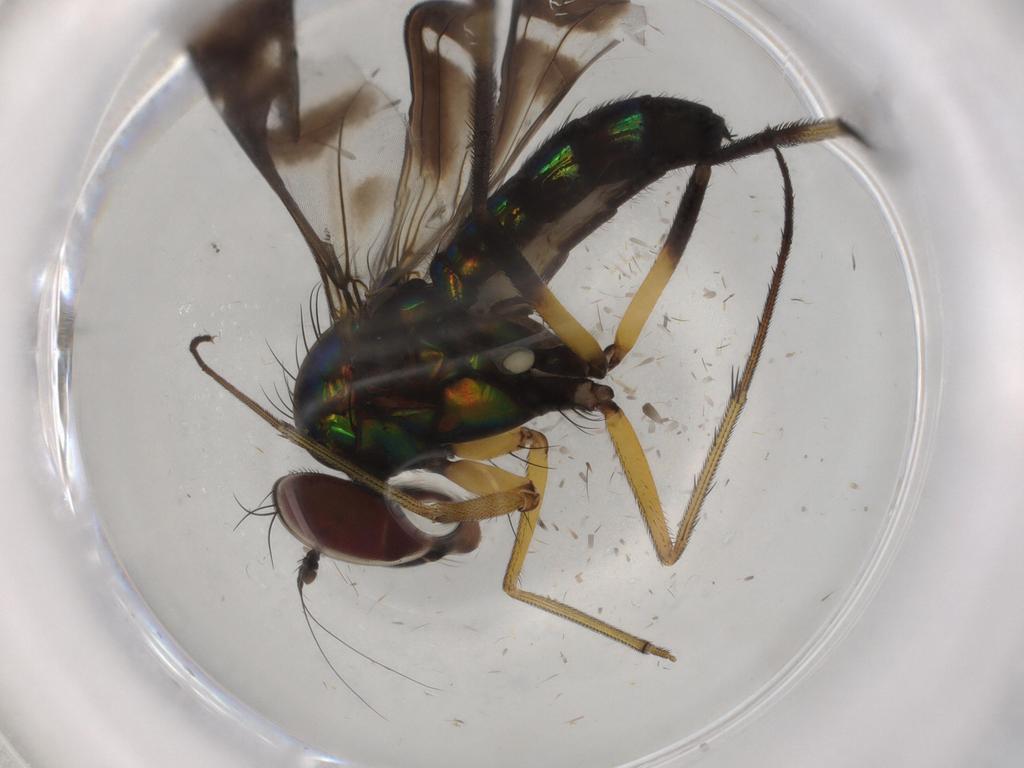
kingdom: Animalia
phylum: Arthropoda
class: Insecta
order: Diptera
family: Dolichopodidae
